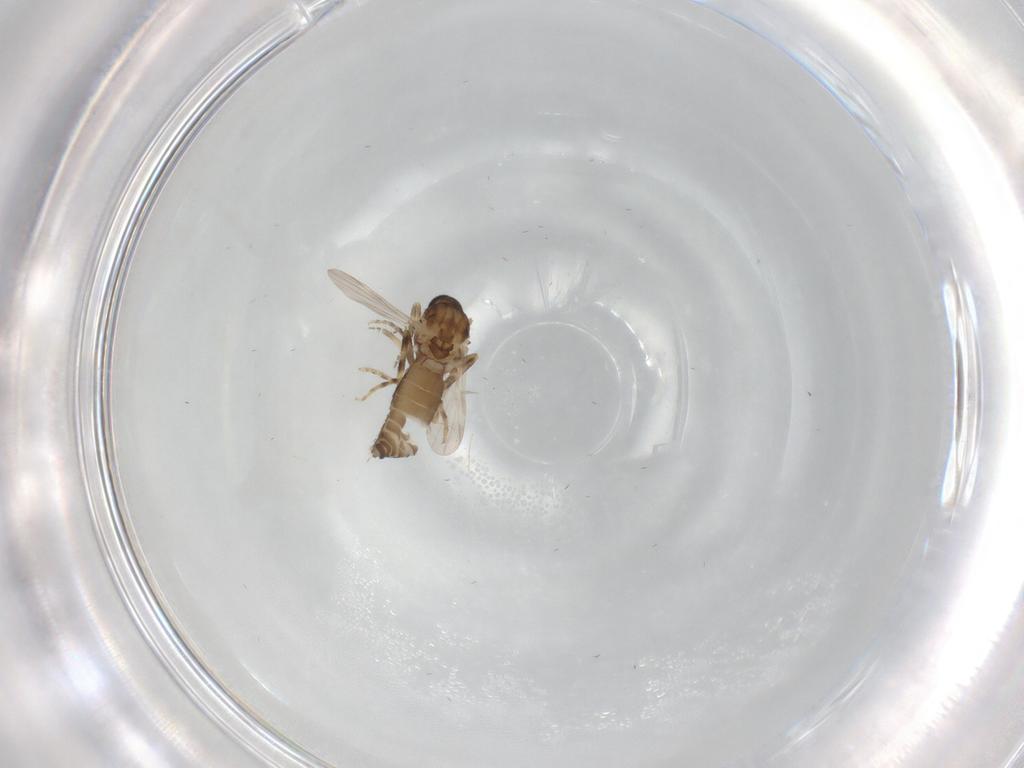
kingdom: Animalia
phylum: Arthropoda
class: Insecta
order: Diptera
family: Ceratopogonidae
